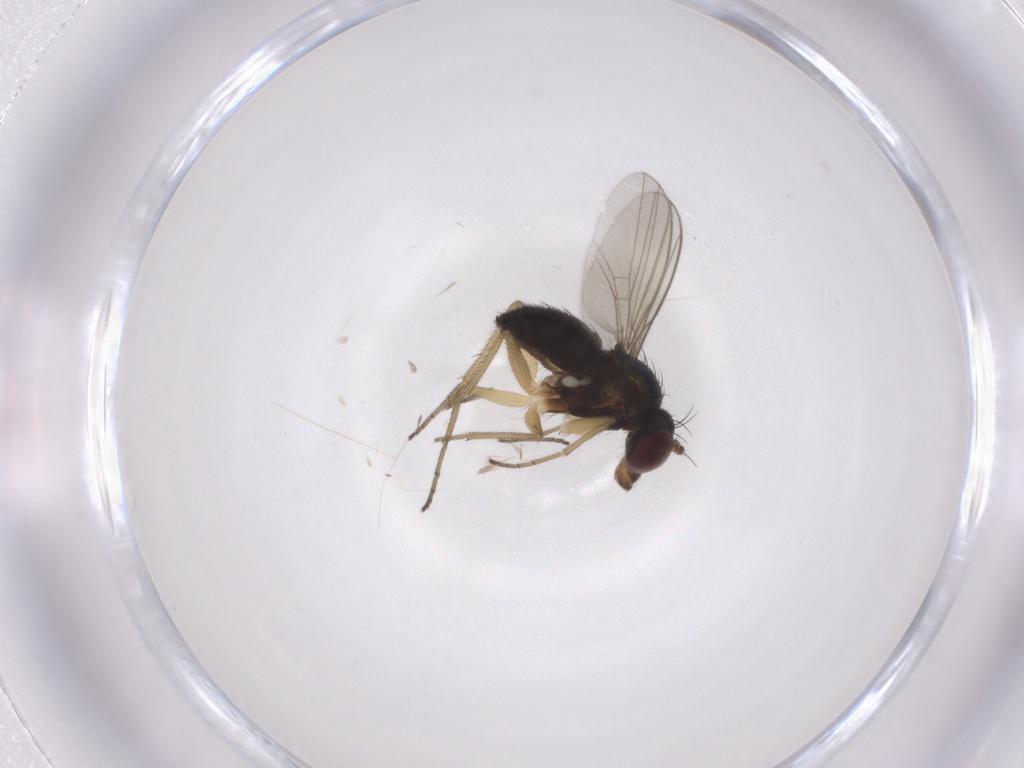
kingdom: Animalia
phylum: Arthropoda
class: Insecta
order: Diptera
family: Dolichopodidae
